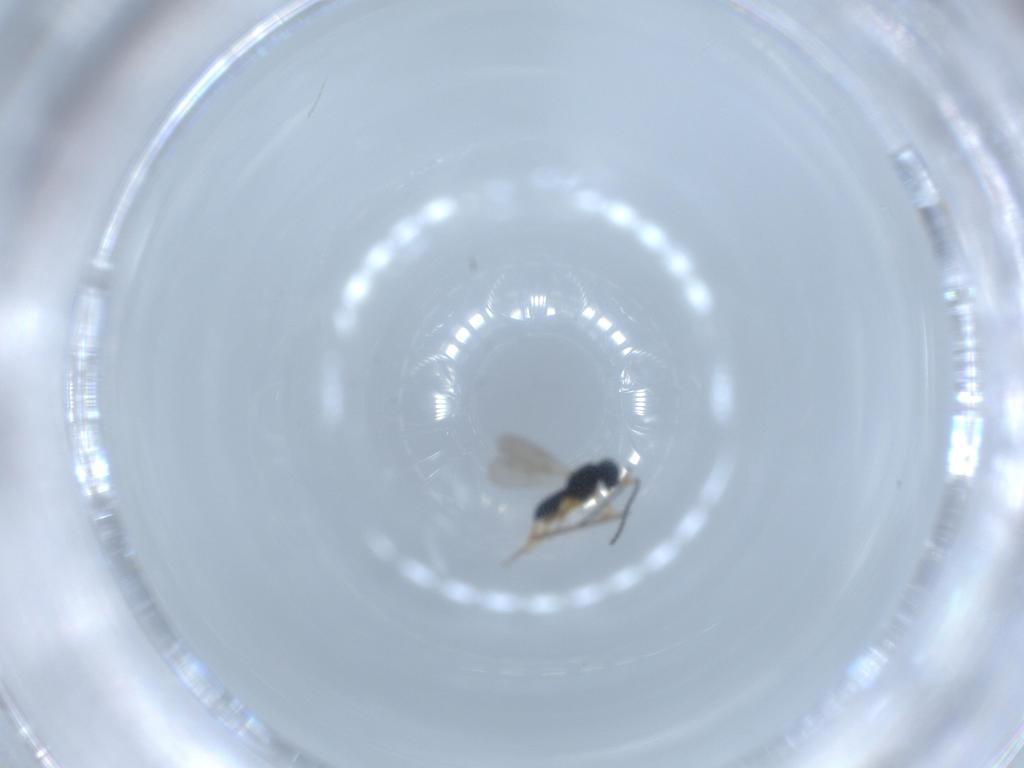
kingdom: Animalia
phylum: Arthropoda
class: Insecta
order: Hymenoptera
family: Scelionidae
